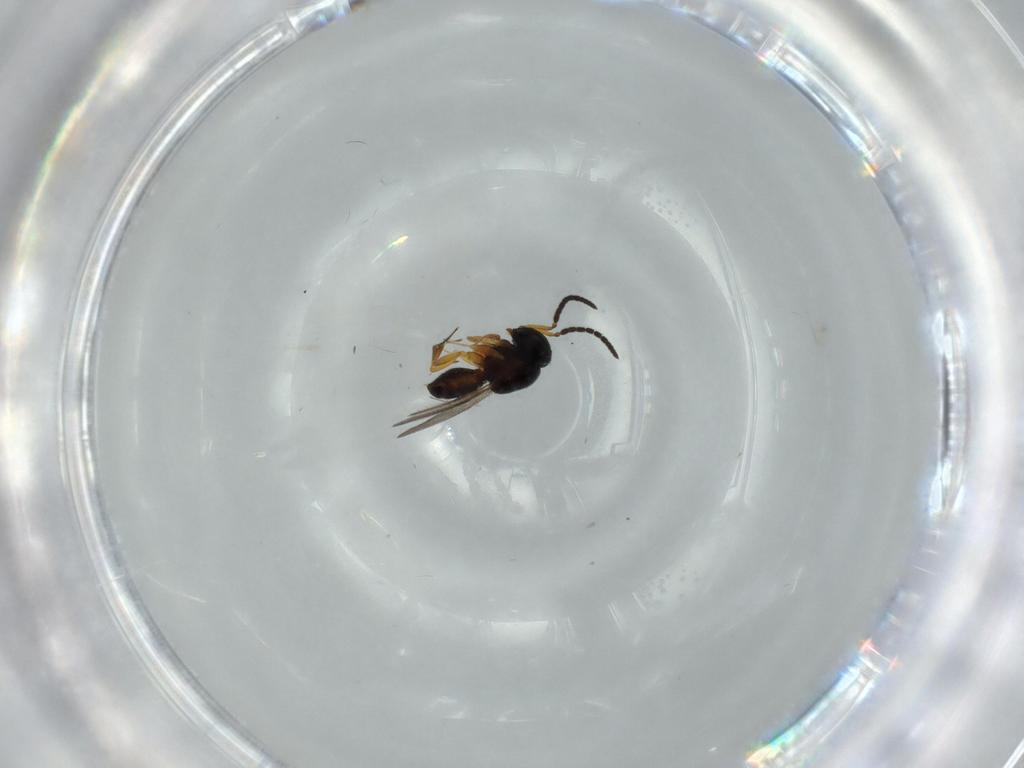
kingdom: Animalia
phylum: Arthropoda
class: Insecta
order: Hymenoptera
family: Scelionidae
